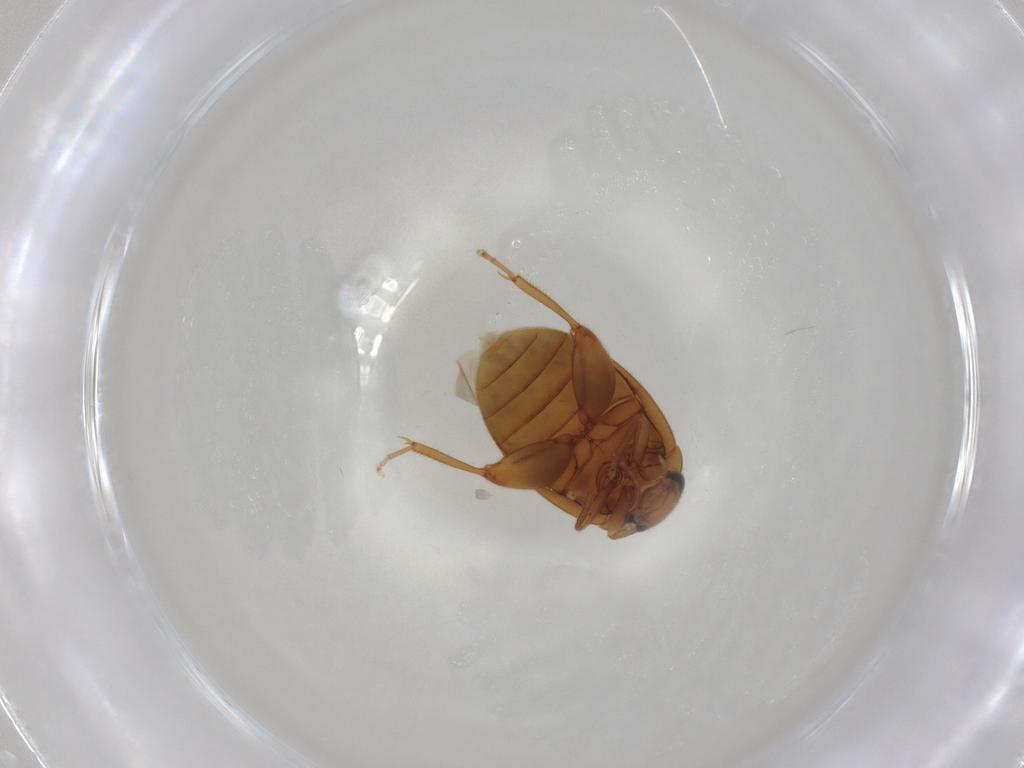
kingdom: Animalia
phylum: Arthropoda
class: Insecta
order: Coleoptera
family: Scirtidae
